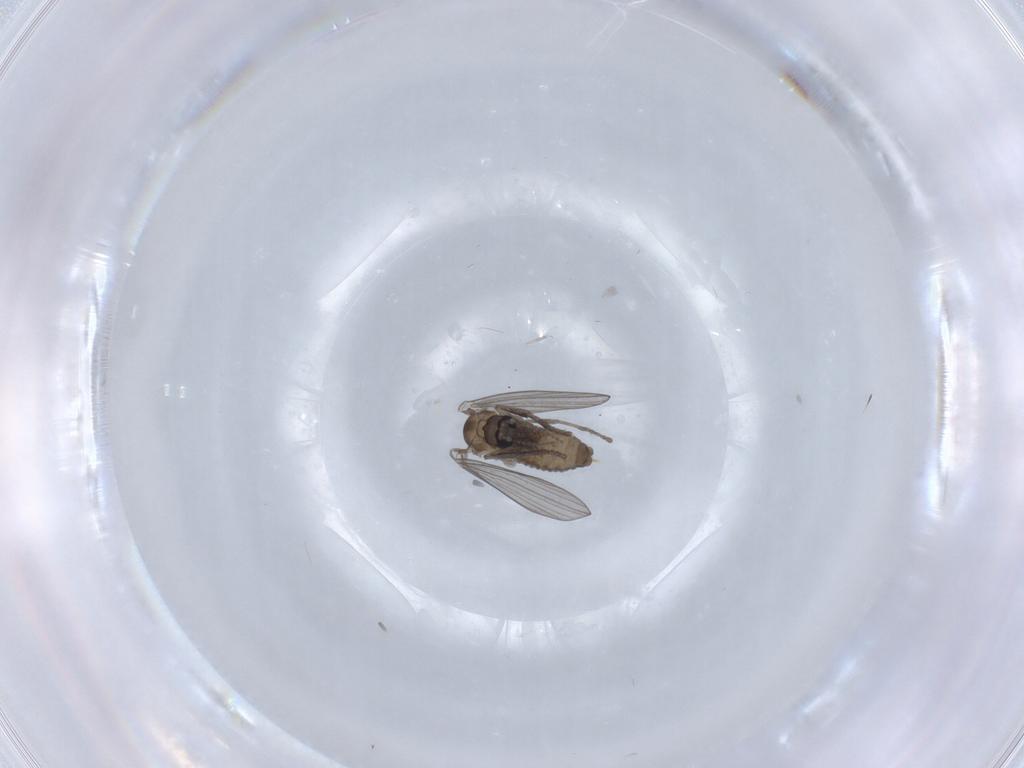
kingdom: Animalia
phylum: Arthropoda
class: Insecta
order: Diptera
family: Psychodidae
